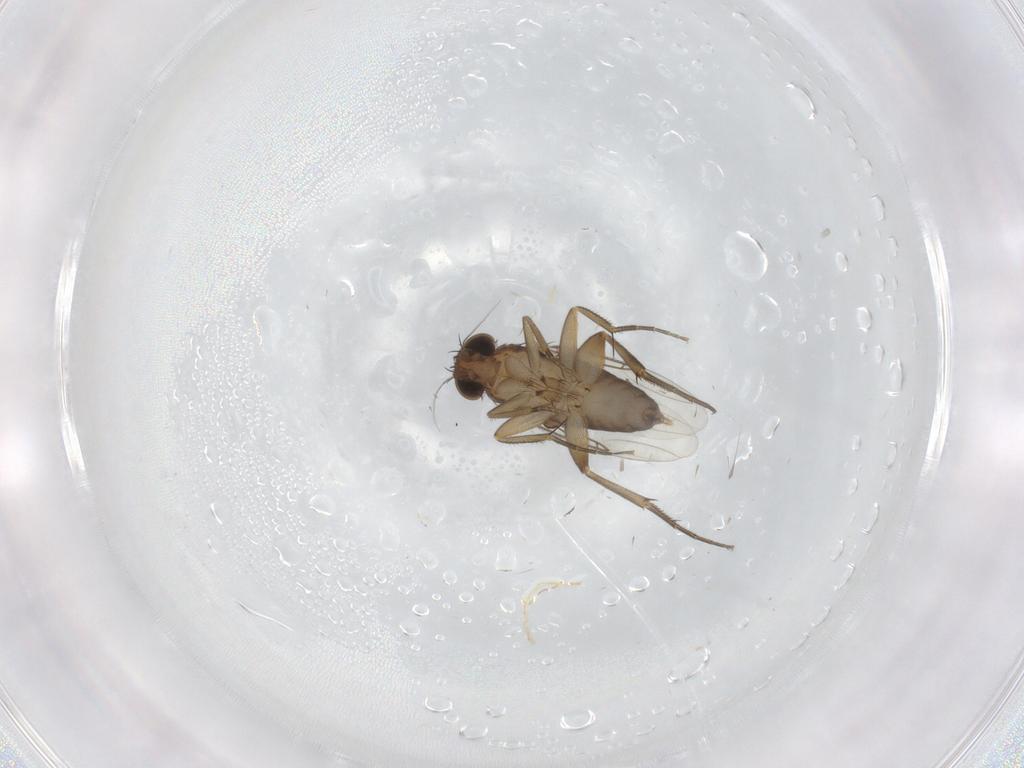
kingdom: Animalia
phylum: Arthropoda
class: Insecta
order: Diptera
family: Phoridae
